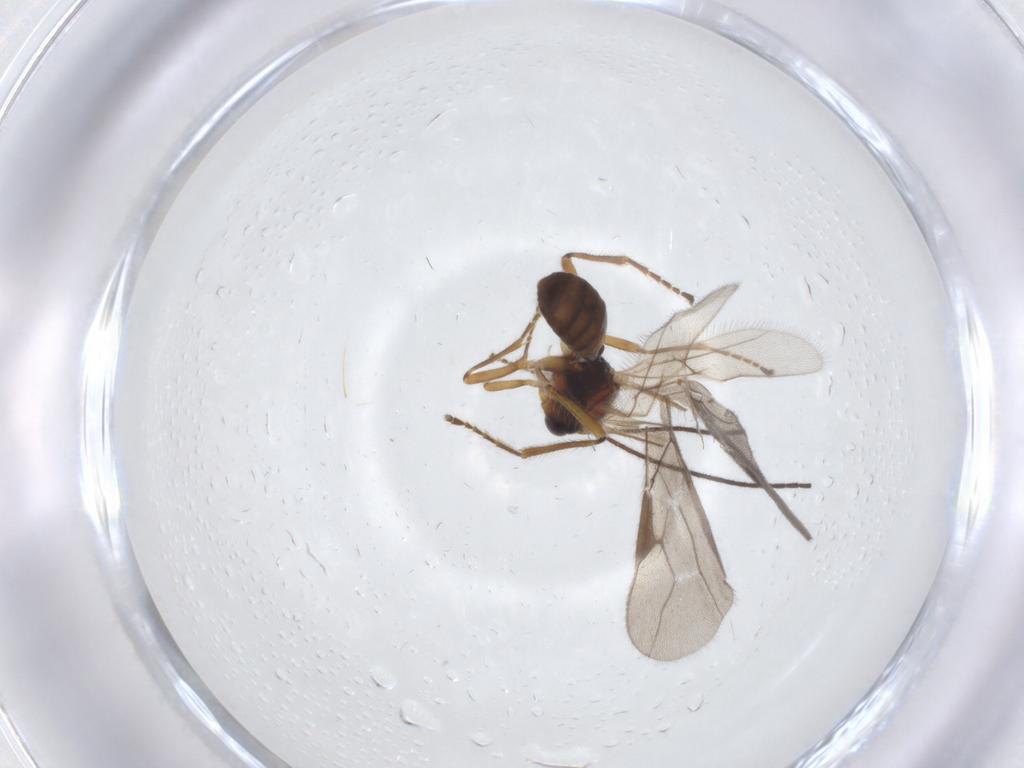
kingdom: Animalia
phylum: Arthropoda
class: Insecta
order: Hymenoptera
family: Braconidae
